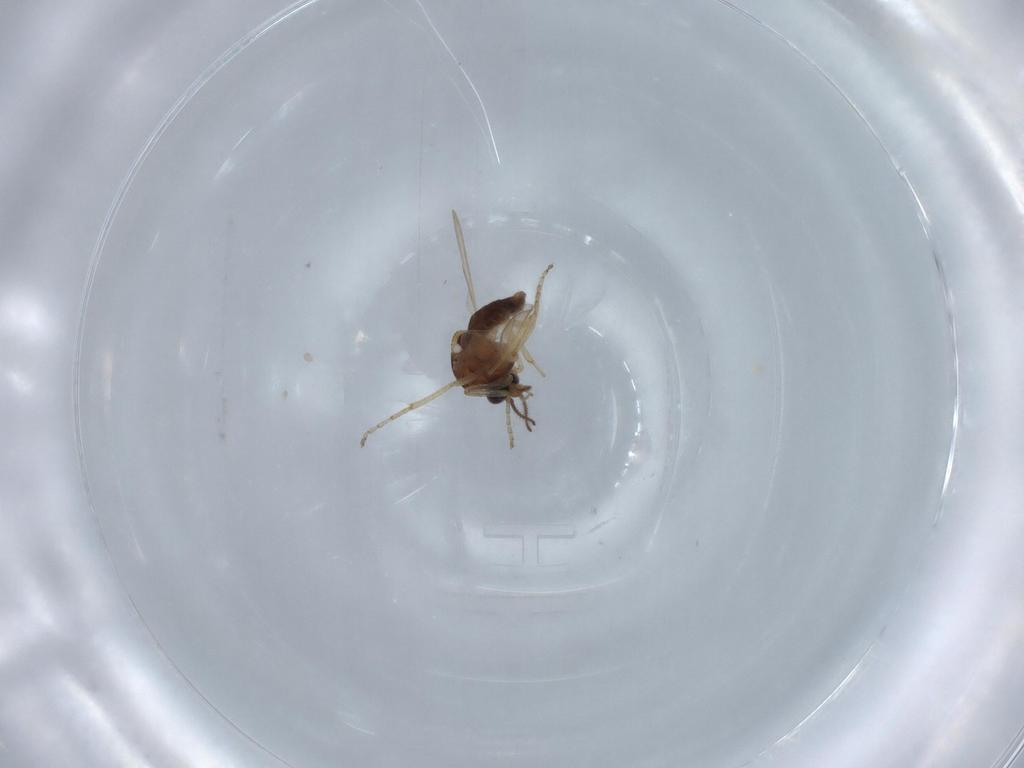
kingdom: Animalia
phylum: Arthropoda
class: Insecta
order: Diptera
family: Ceratopogonidae
